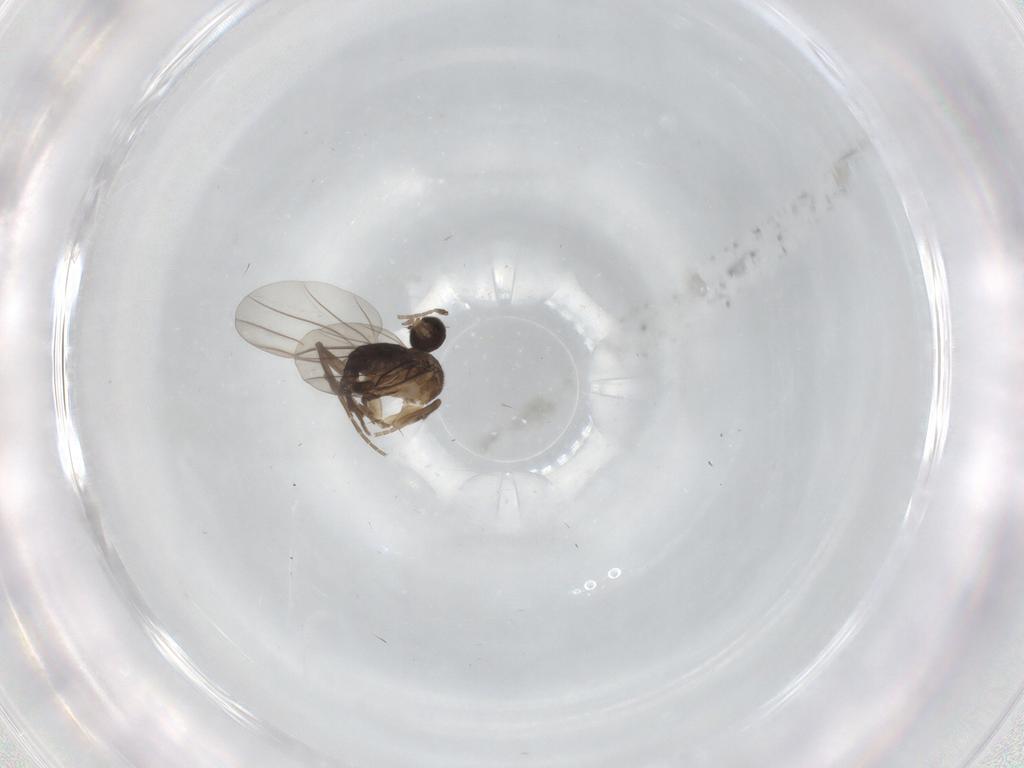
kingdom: Animalia
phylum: Arthropoda
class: Insecta
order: Diptera
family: Phoridae
